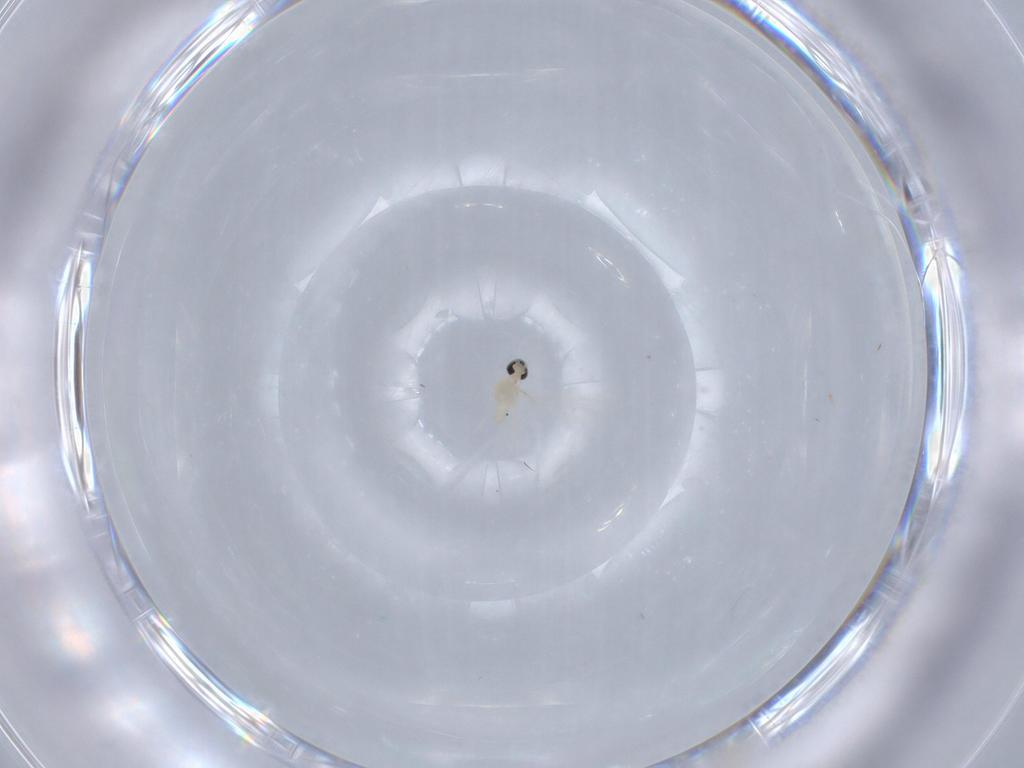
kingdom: Animalia
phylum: Arthropoda
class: Insecta
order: Diptera
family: Cecidomyiidae
